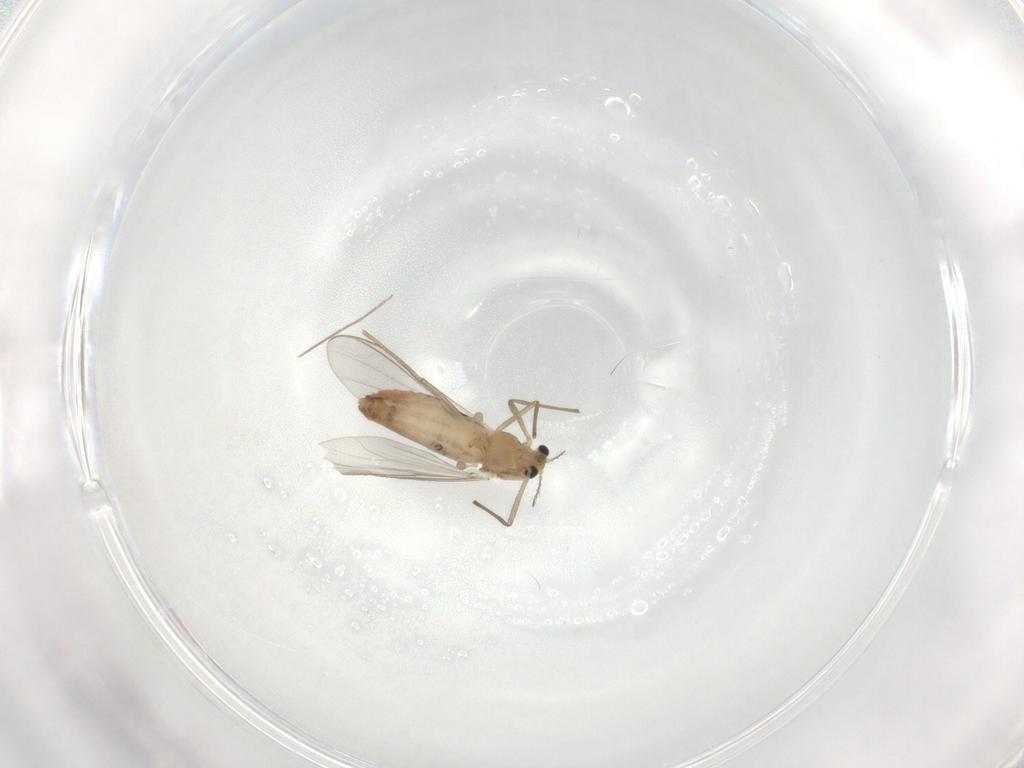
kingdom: Animalia
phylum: Arthropoda
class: Insecta
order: Diptera
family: Chironomidae
